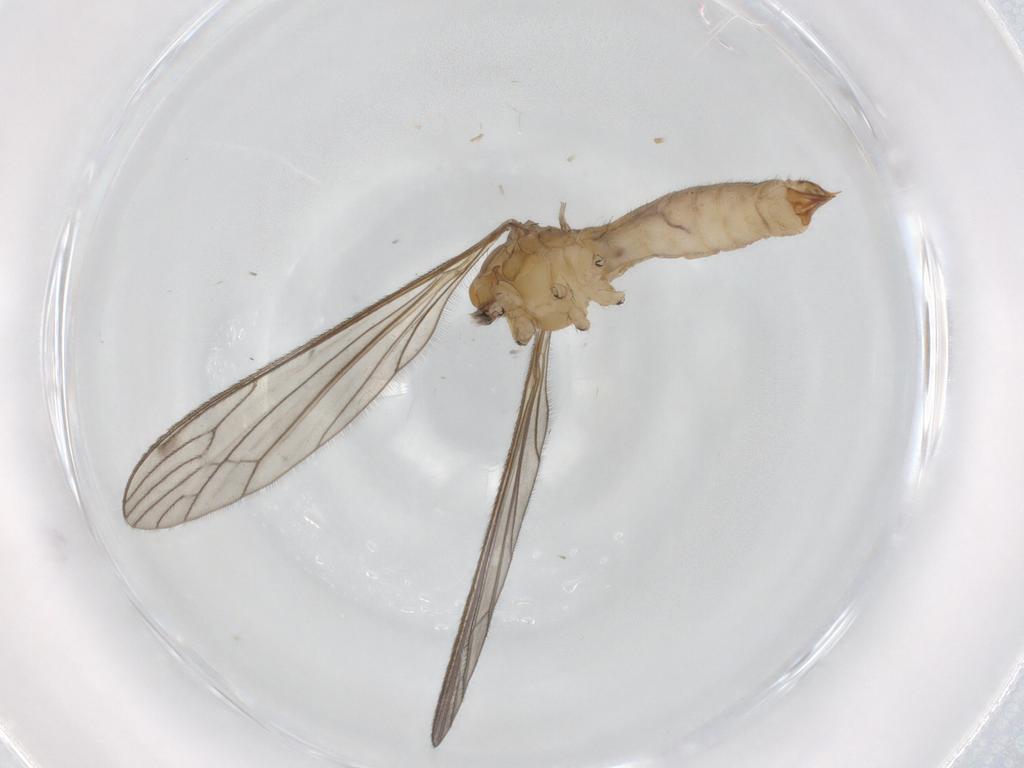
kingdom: Animalia
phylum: Arthropoda
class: Insecta
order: Diptera
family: Limoniidae
